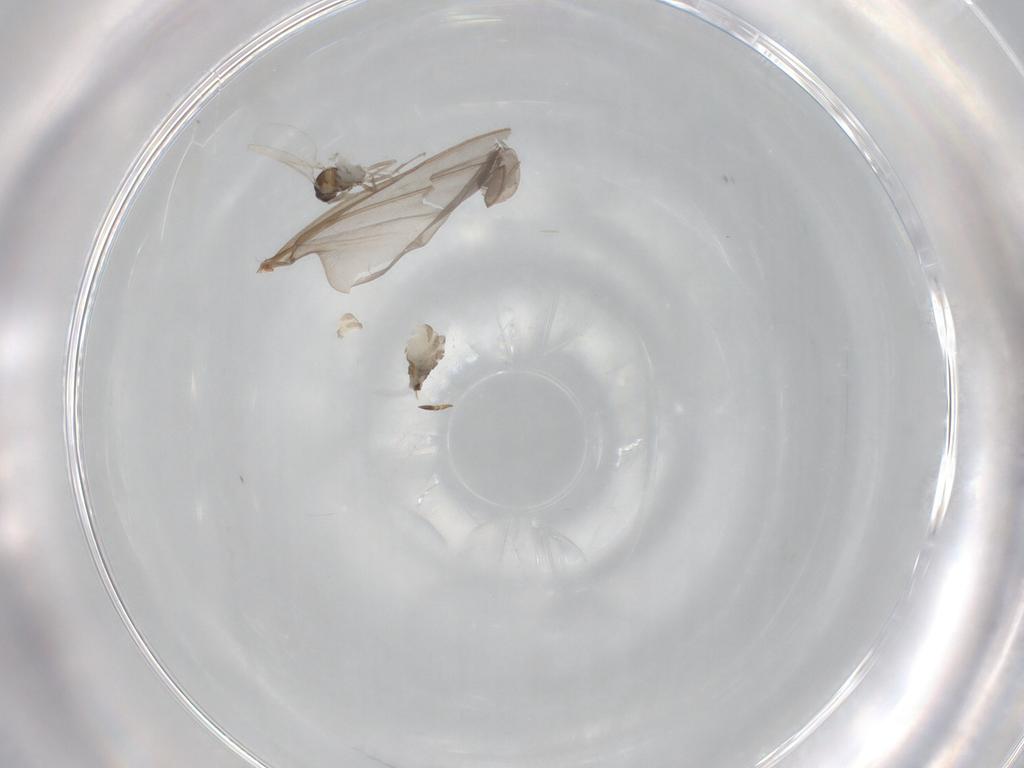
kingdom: Animalia
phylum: Arthropoda
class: Insecta
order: Diptera
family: Cecidomyiidae
